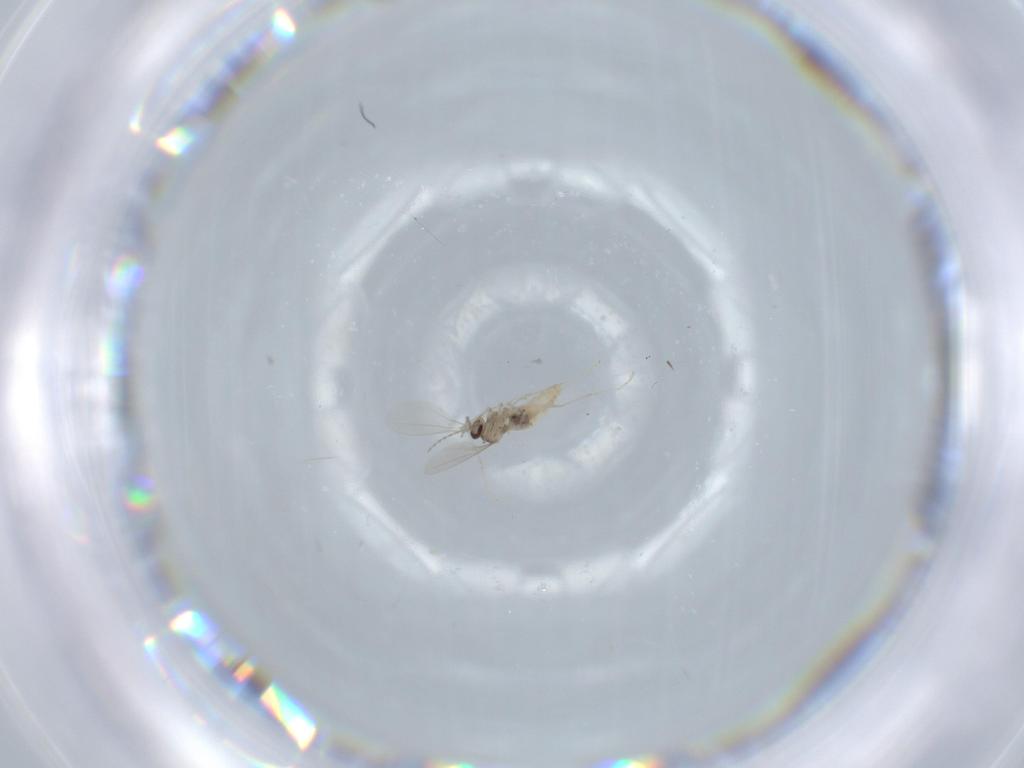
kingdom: Animalia
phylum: Arthropoda
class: Insecta
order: Diptera
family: Cecidomyiidae
